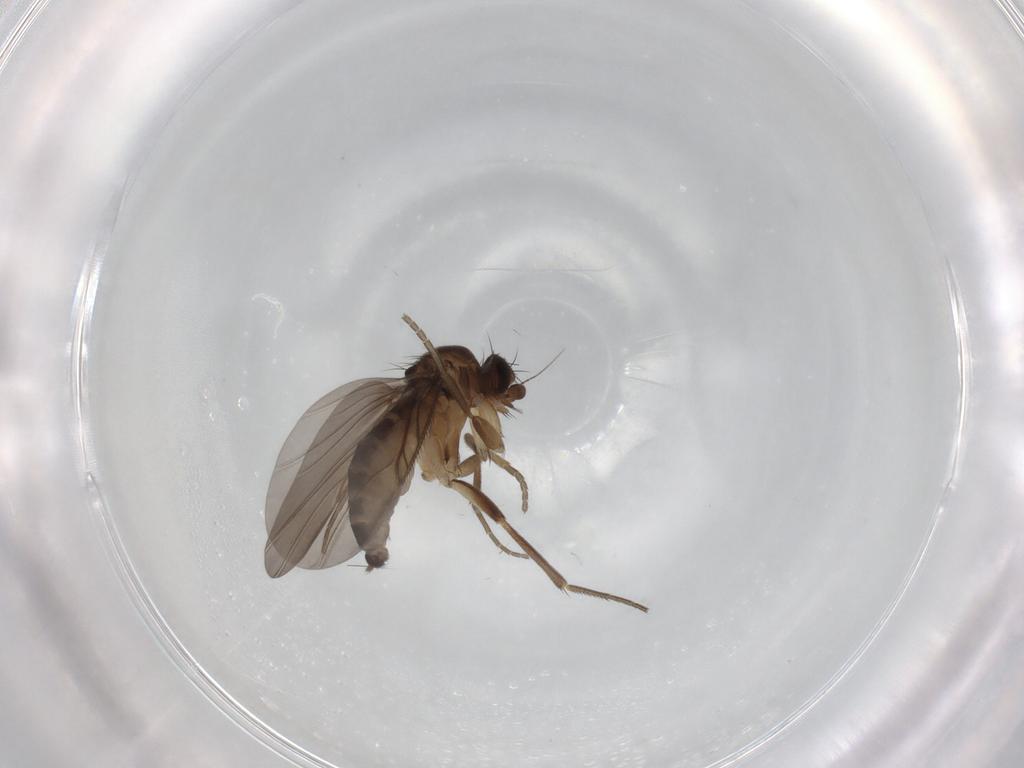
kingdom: Animalia
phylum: Arthropoda
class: Insecta
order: Diptera
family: Phoridae
